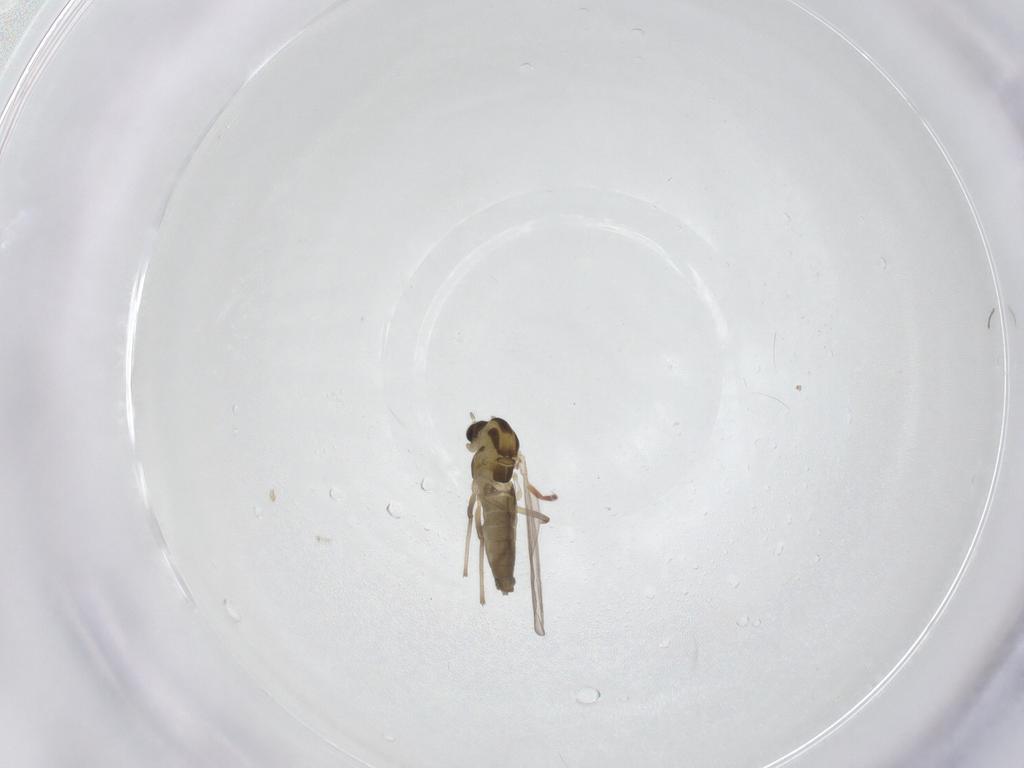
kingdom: Animalia
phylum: Arthropoda
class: Insecta
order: Diptera
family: Chironomidae
